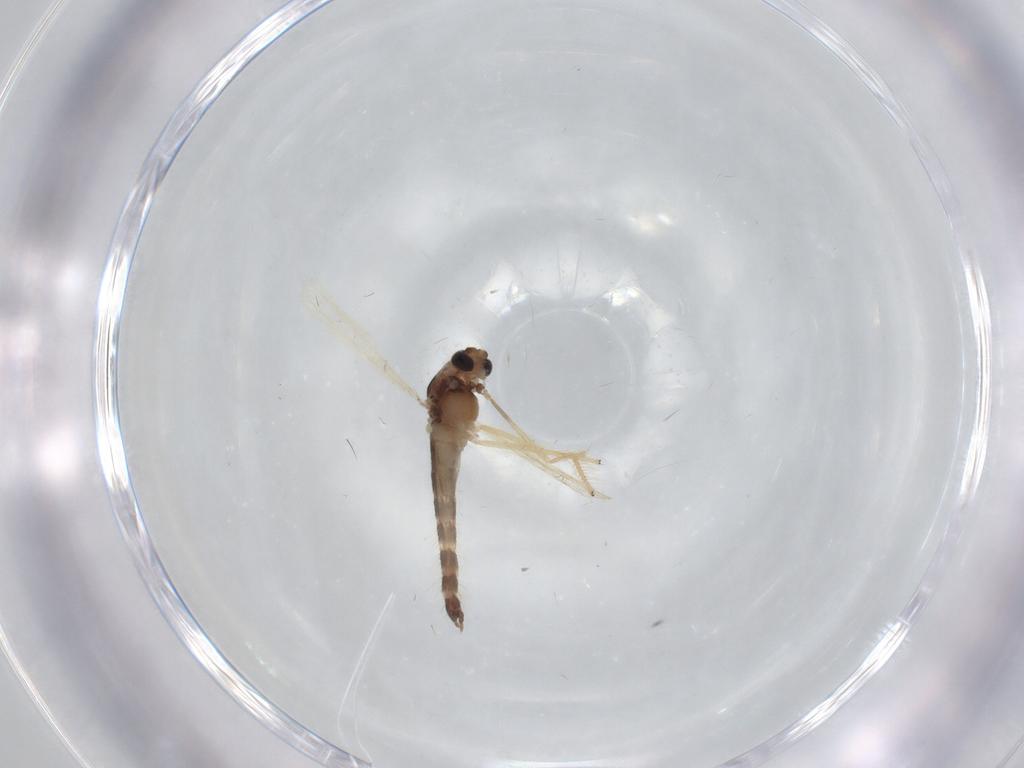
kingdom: Animalia
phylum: Arthropoda
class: Insecta
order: Diptera
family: Chironomidae
